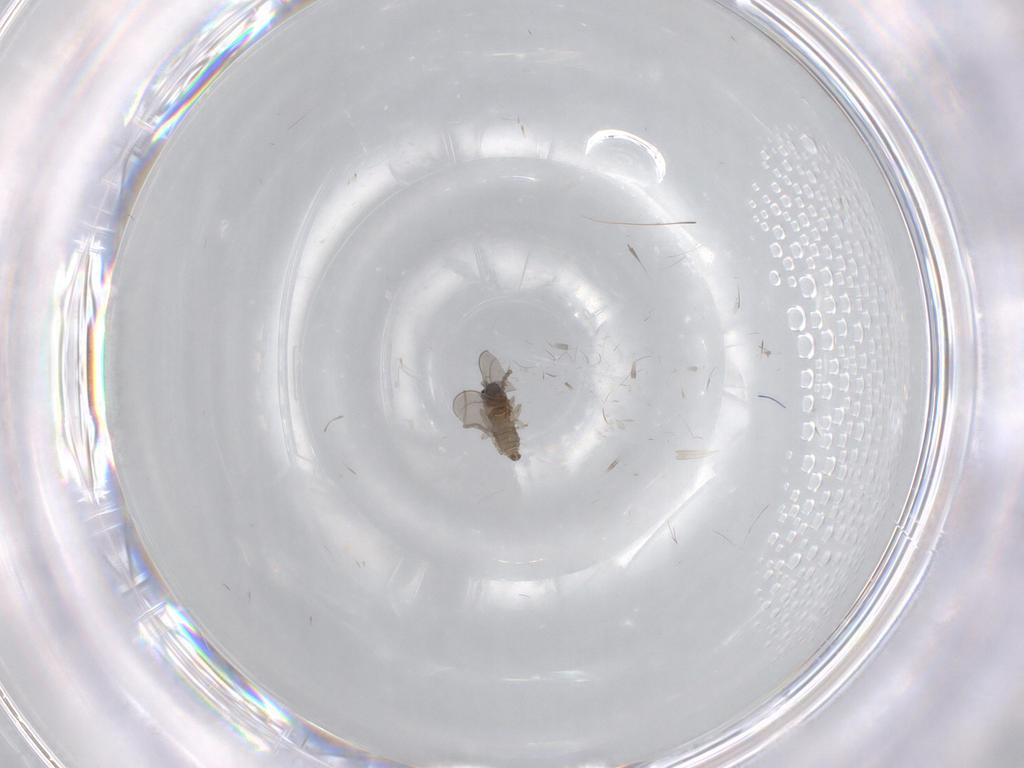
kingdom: Animalia
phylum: Arthropoda
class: Insecta
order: Diptera
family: Cecidomyiidae
